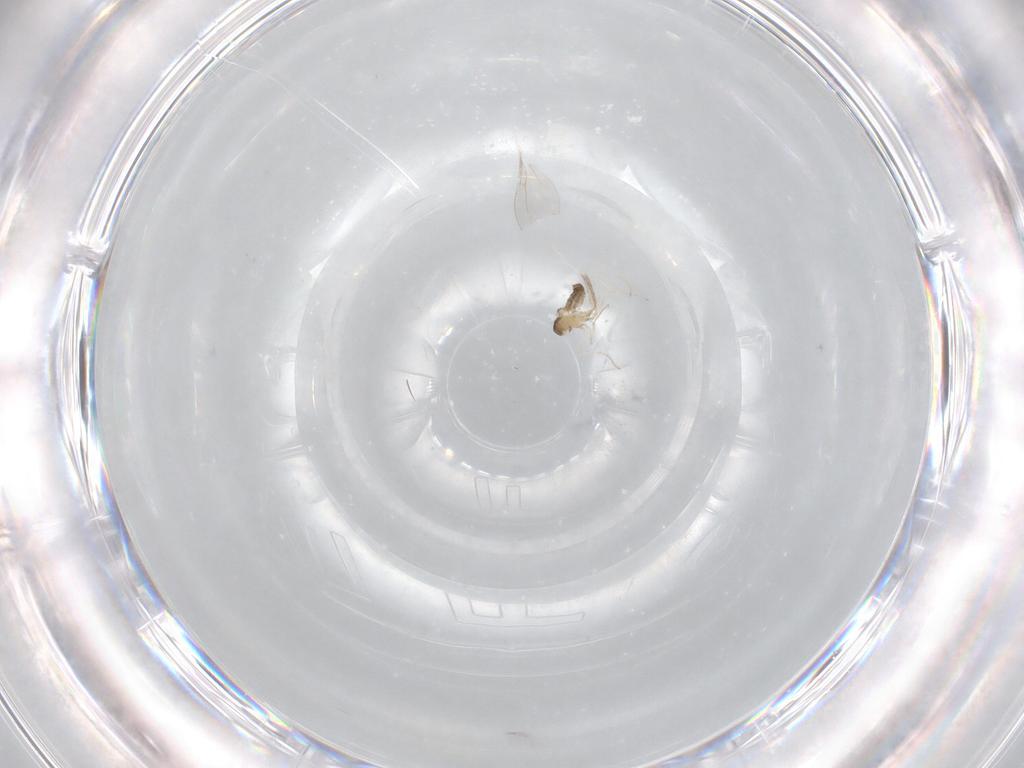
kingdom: Animalia
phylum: Arthropoda
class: Insecta
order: Diptera
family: Cecidomyiidae
